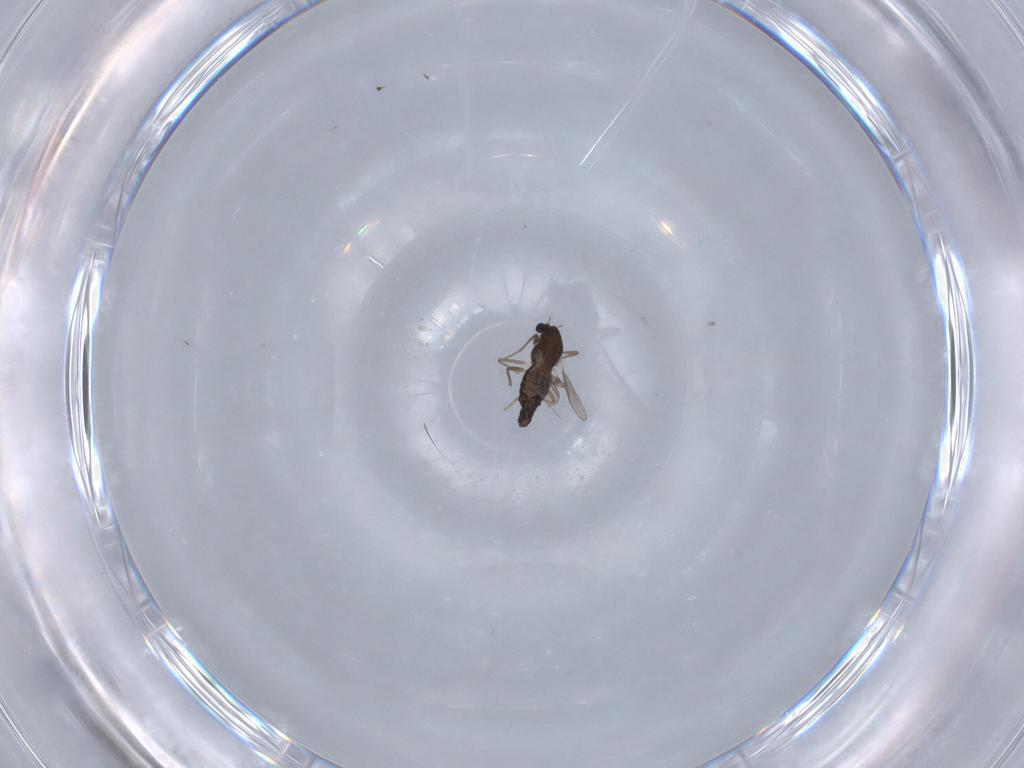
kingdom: Animalia
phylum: Arthropoda
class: Insecta
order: Diptera
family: Chironomidae
